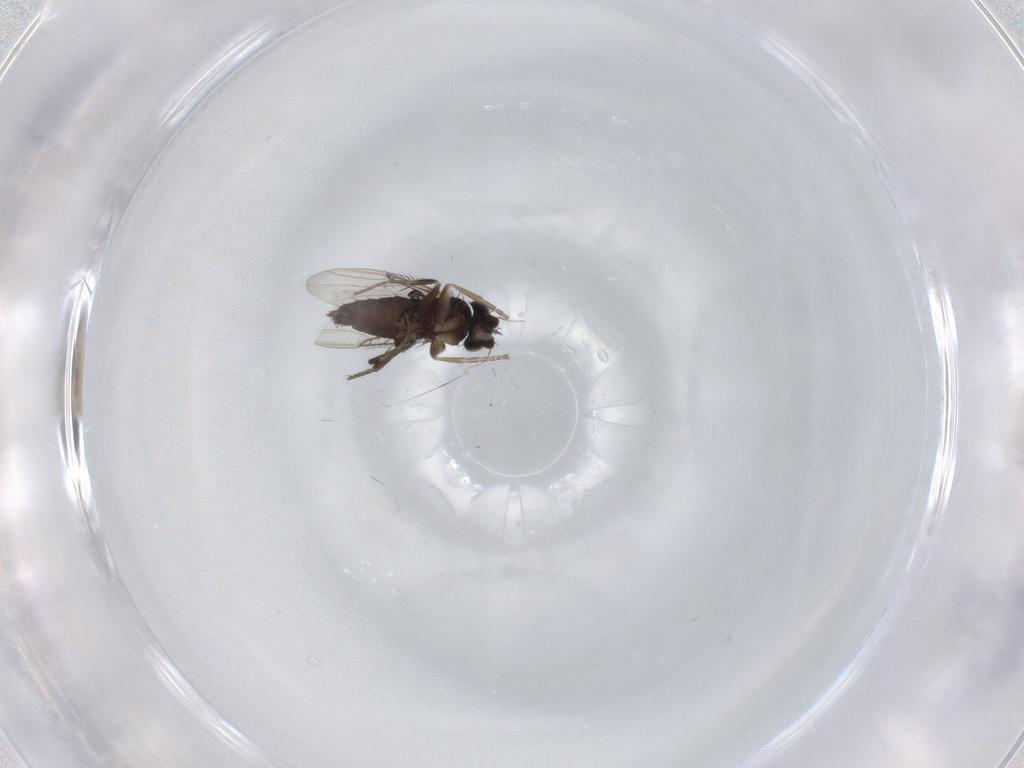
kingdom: Animalia
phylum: Arthropoda
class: Insecta
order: Diptera
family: Phoridae
